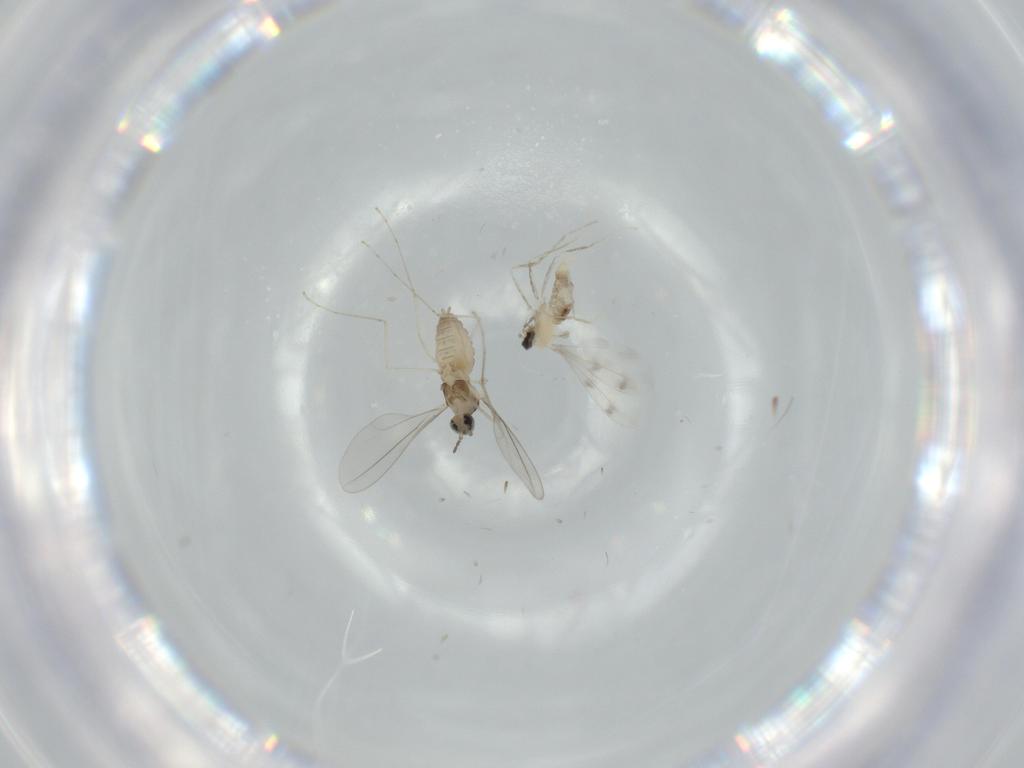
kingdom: Animalia
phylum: Arthropoda
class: Insecta
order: Diptera
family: Cecidomyiidae
